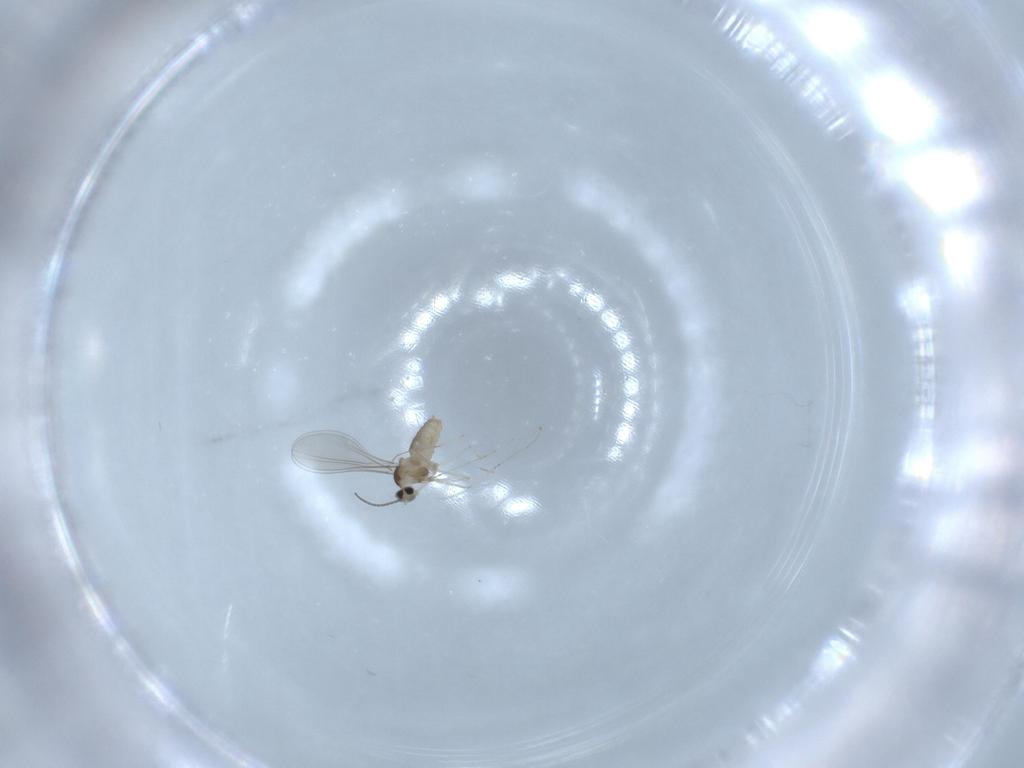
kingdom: Animalia
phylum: Arthropoda
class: Insecta
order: Diptera
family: Cecidomyiidae
